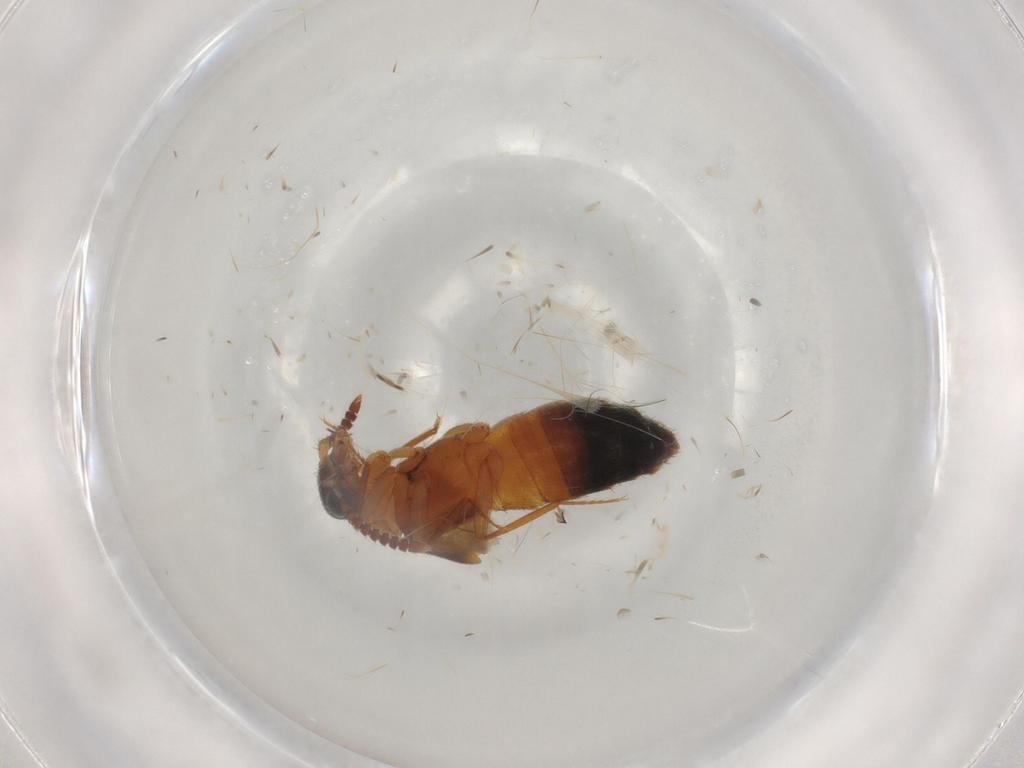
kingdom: Animalia
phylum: Arthropoda
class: Insecta
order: Coleoptera
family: Staphylinidae
